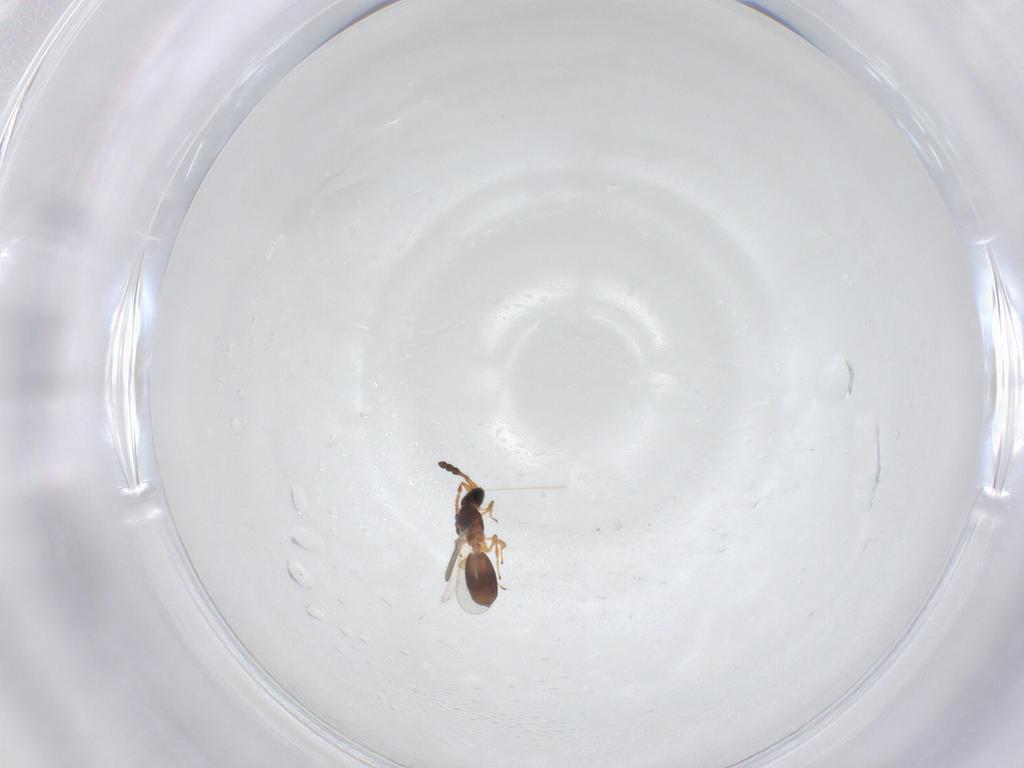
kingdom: Animalia
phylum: Arthropoda
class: Insecta
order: Hymenoptera
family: Diapriidae
